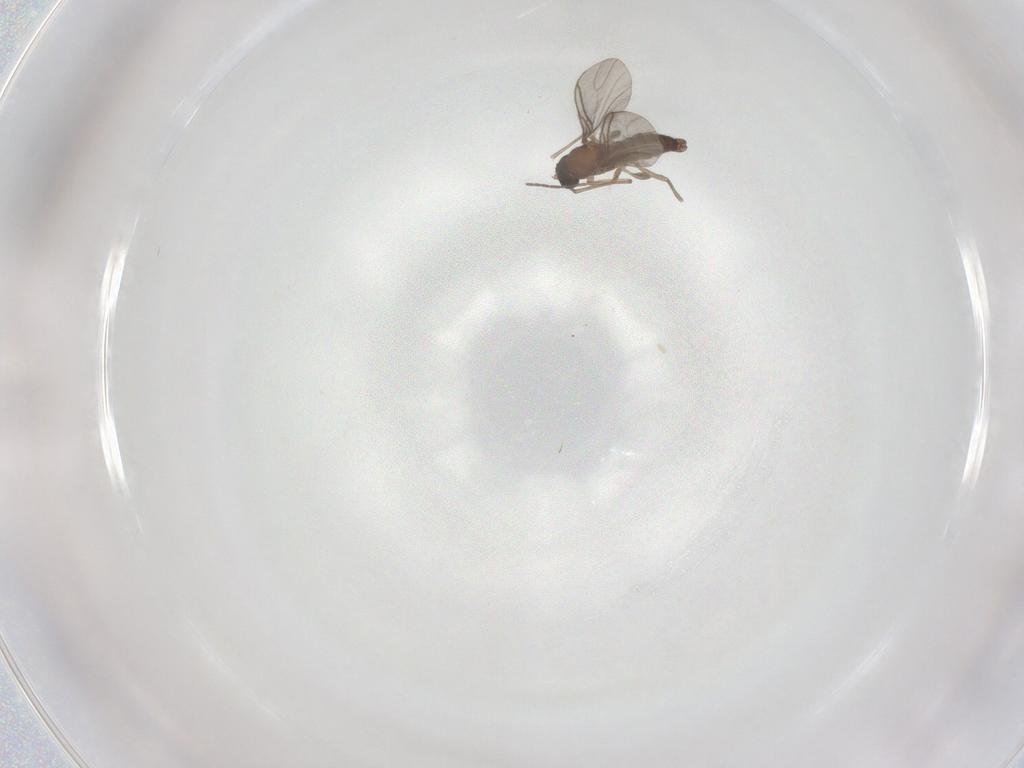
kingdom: Animalia
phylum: Arthropoda
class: Insecta
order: Diptera
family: Sciaridae
